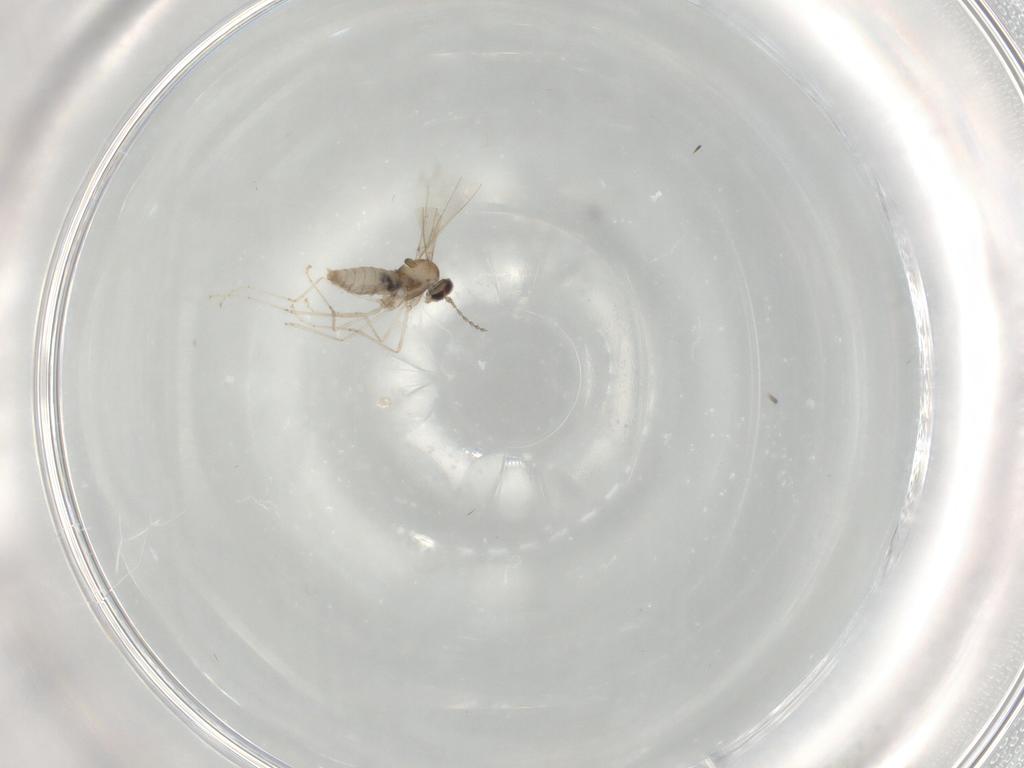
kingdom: Animalia
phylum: Arthropoda
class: Insecta
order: Diptera
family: Cecidomyiidae
